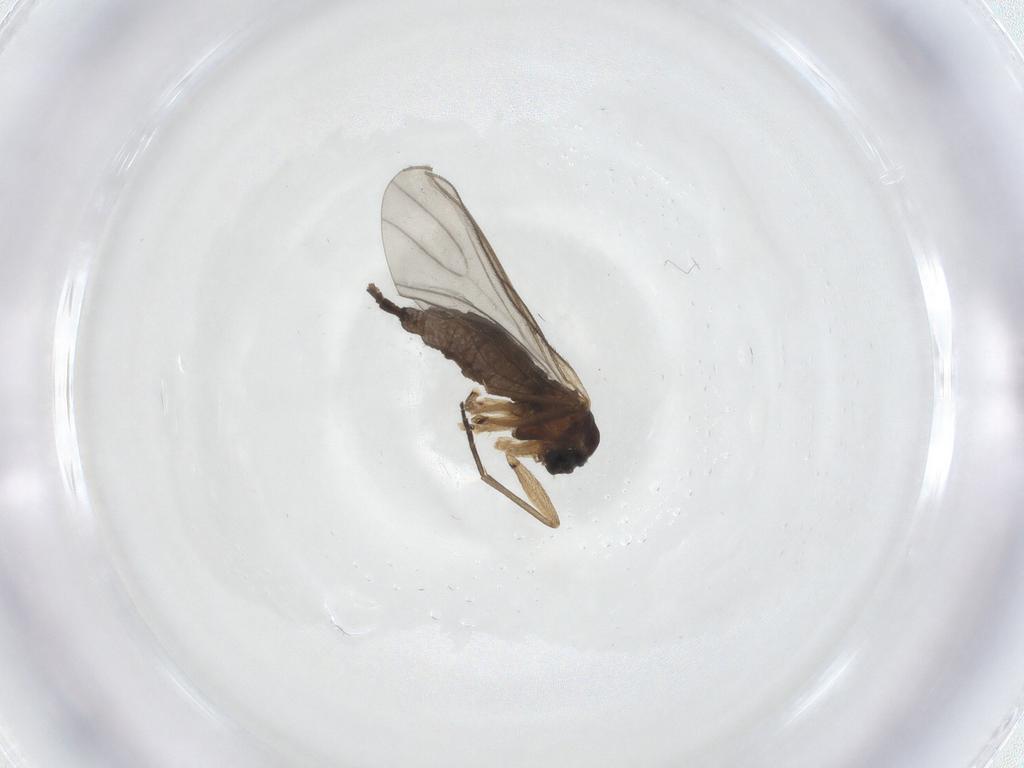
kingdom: Animalia
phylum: Arthropoda
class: Insecta
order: Diptera
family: Sciaridae
